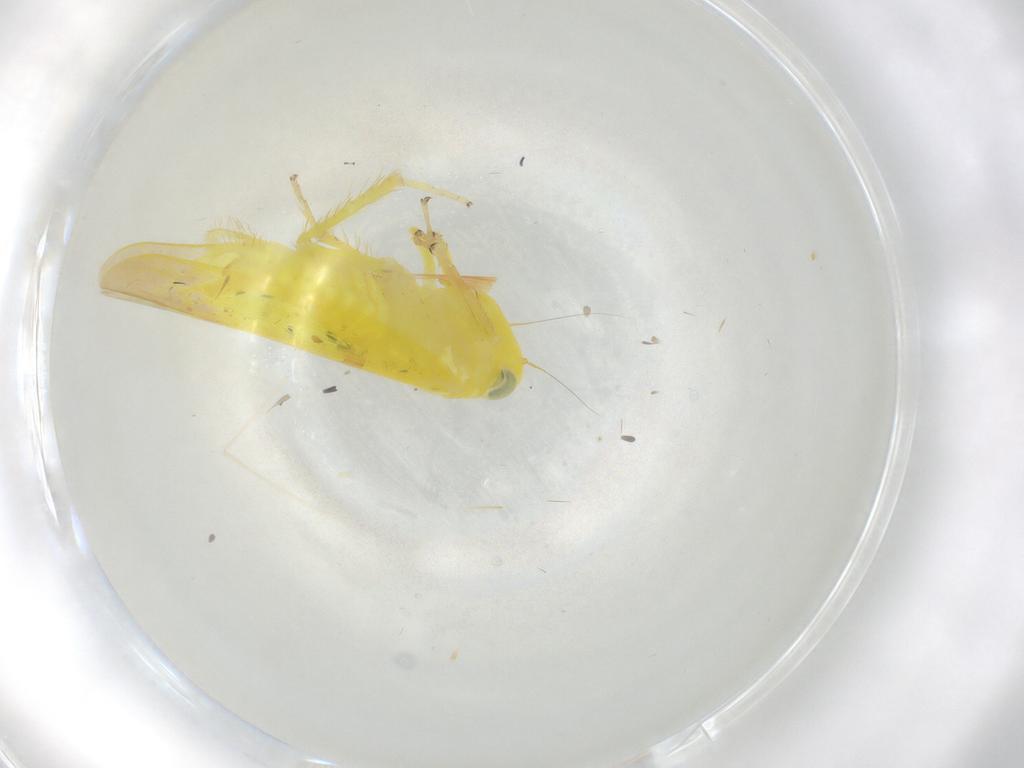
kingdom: Animalia
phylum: Arthropoda
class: Insecta
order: Hemiptera
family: Cicadellidae
